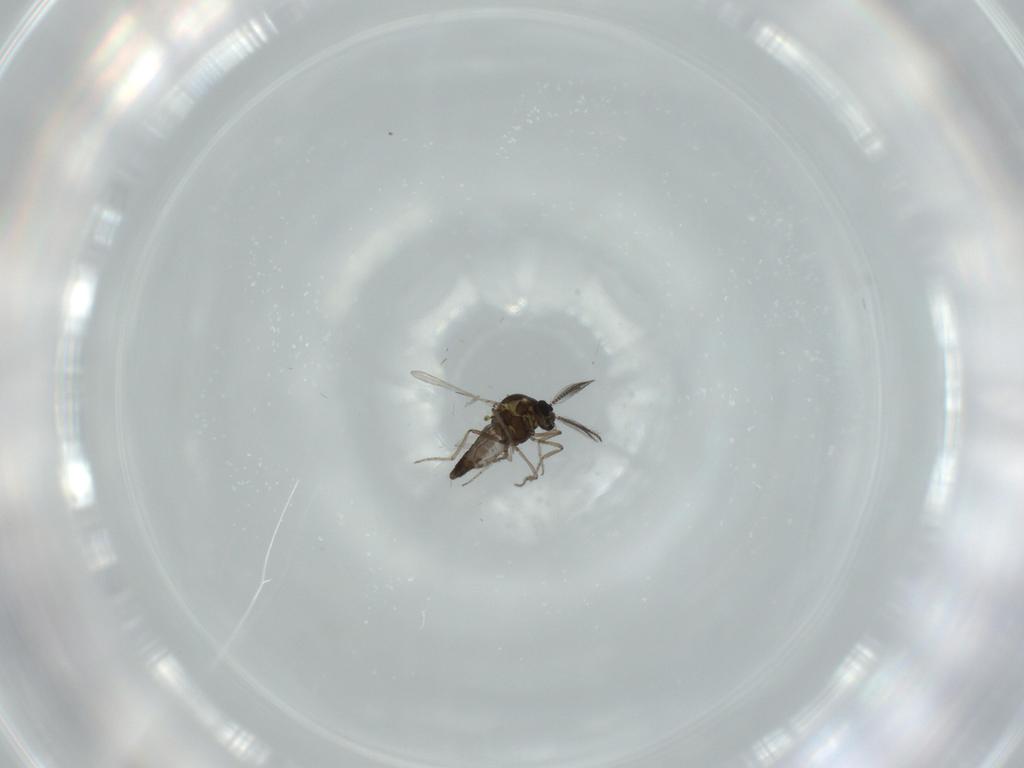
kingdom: Animalia
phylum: Arthropoda
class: Insecta
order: Diptera
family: Ceratopogonidae
